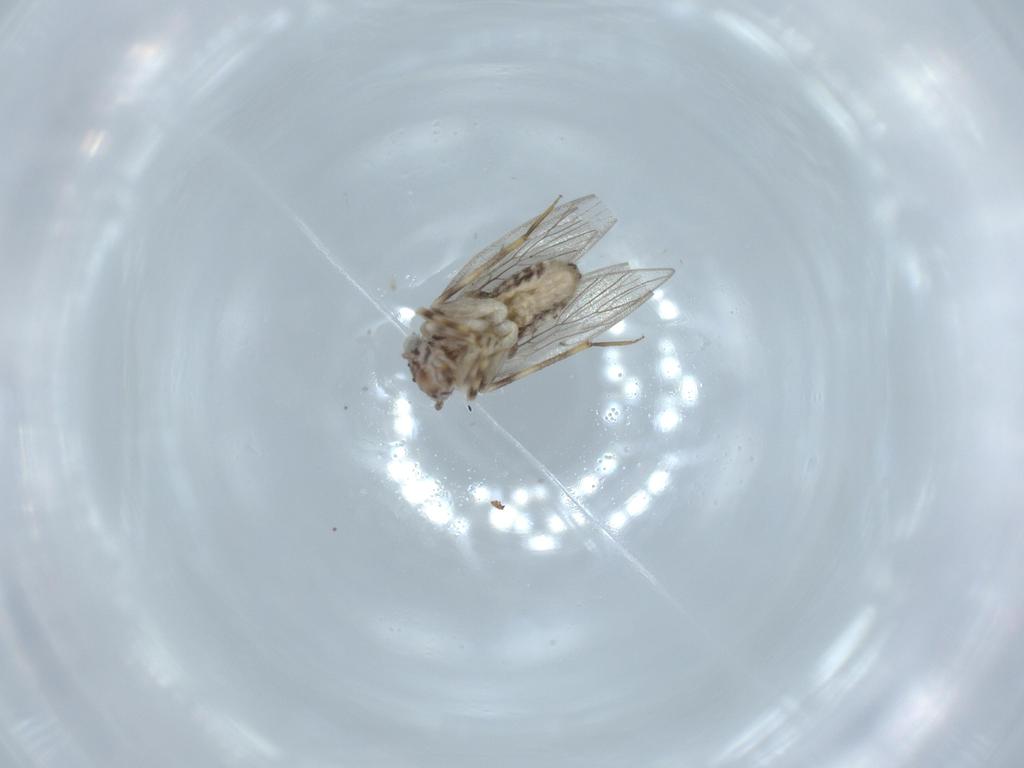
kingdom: Animalia
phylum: Arthropoda
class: Insecta
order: Psocodea
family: Lepidopsocidae
